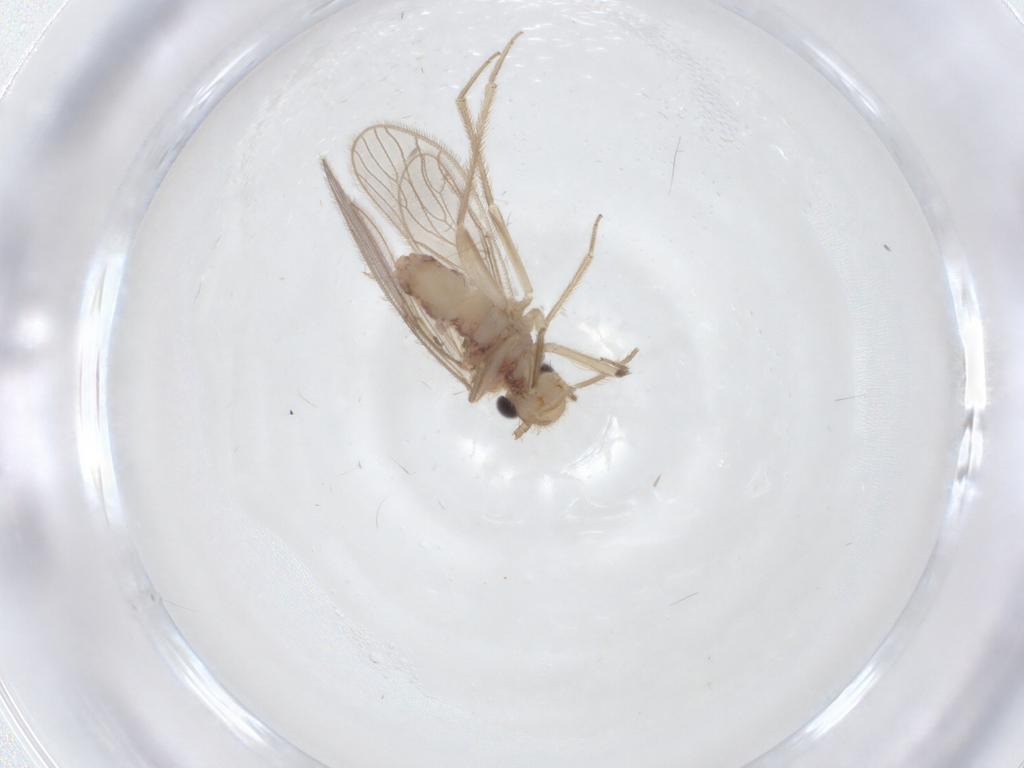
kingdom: Animalia
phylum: Arthropoda
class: Insecta
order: Psocodea
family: Cladiopsocidae
